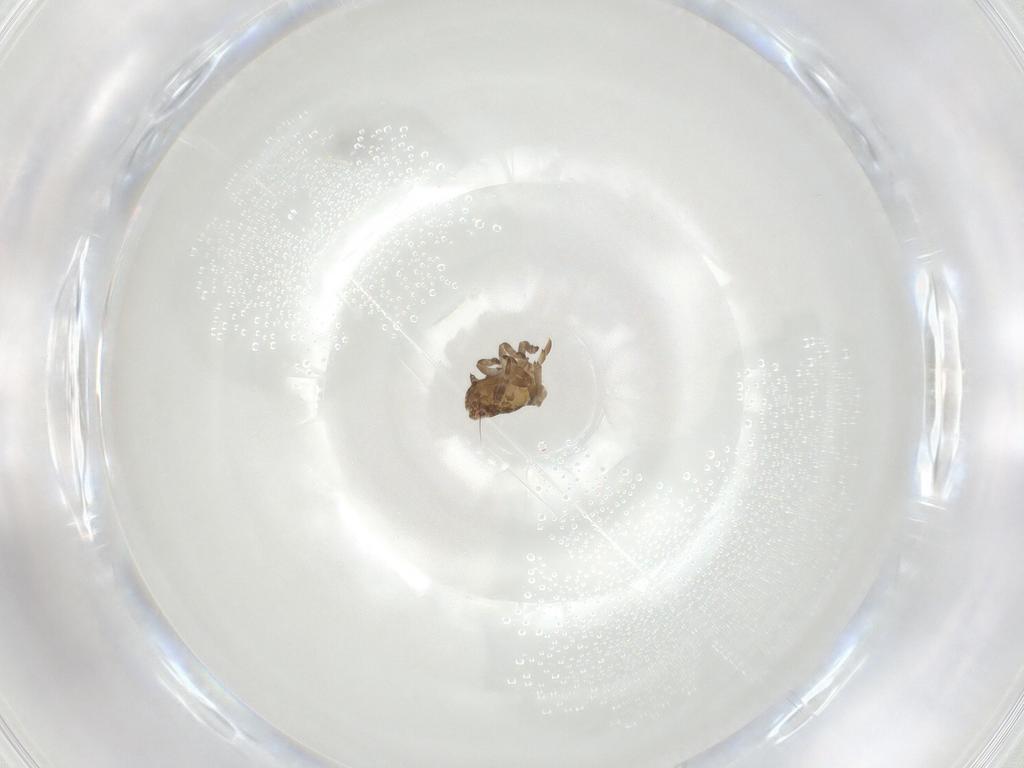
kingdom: Animalia
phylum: Arthropoda
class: Insecta
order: Hemiptera
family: Ricaniidae
